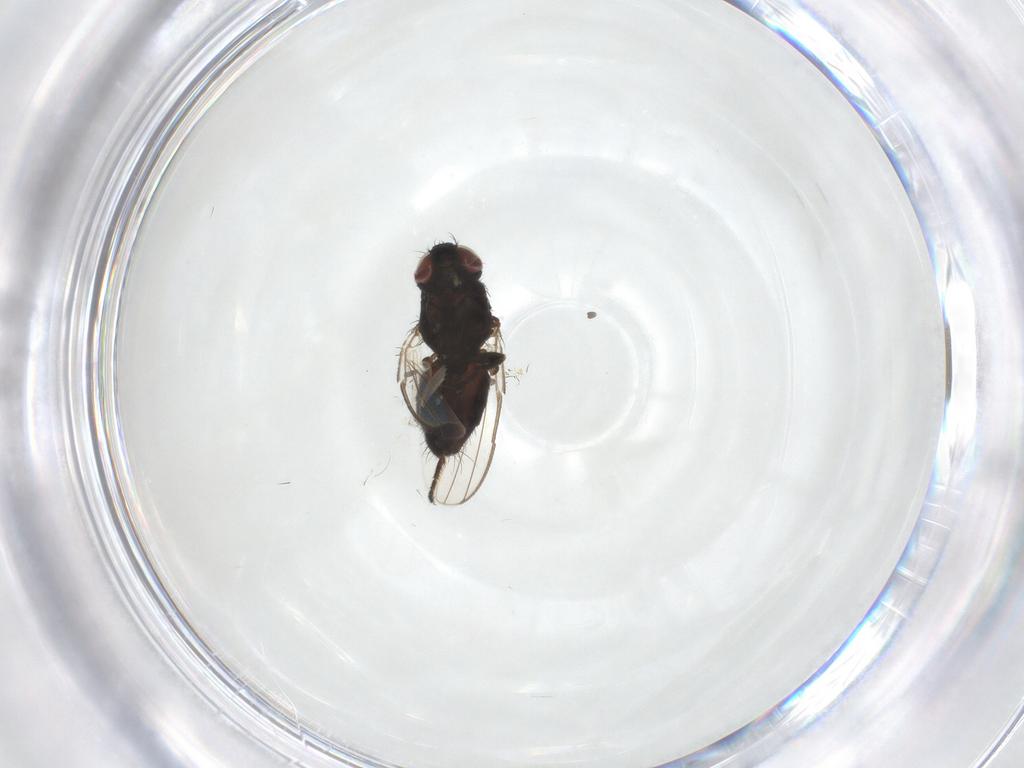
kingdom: Animalia
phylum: Arthropoda
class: Insecta
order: Diptera
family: Milichiidae
